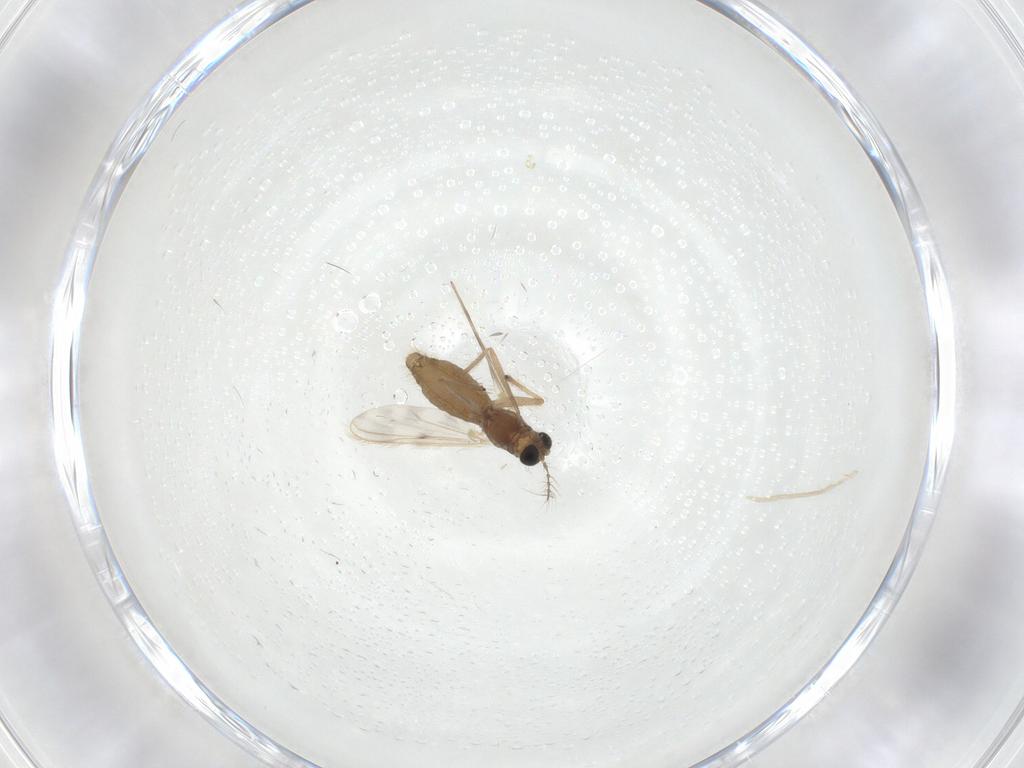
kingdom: Animalia
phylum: Arthropoda
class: Insecta
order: Diptera
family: Chironomidae
